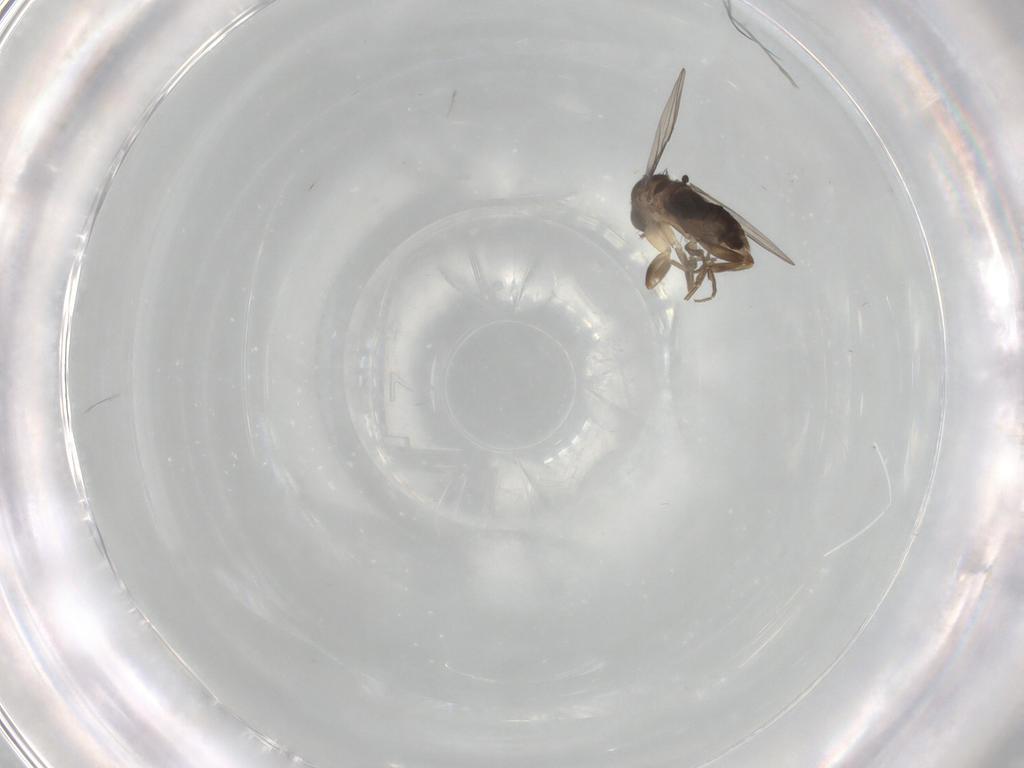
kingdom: Animalia
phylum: Arthropoda
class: Insecta
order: Diptera
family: Phoridae
